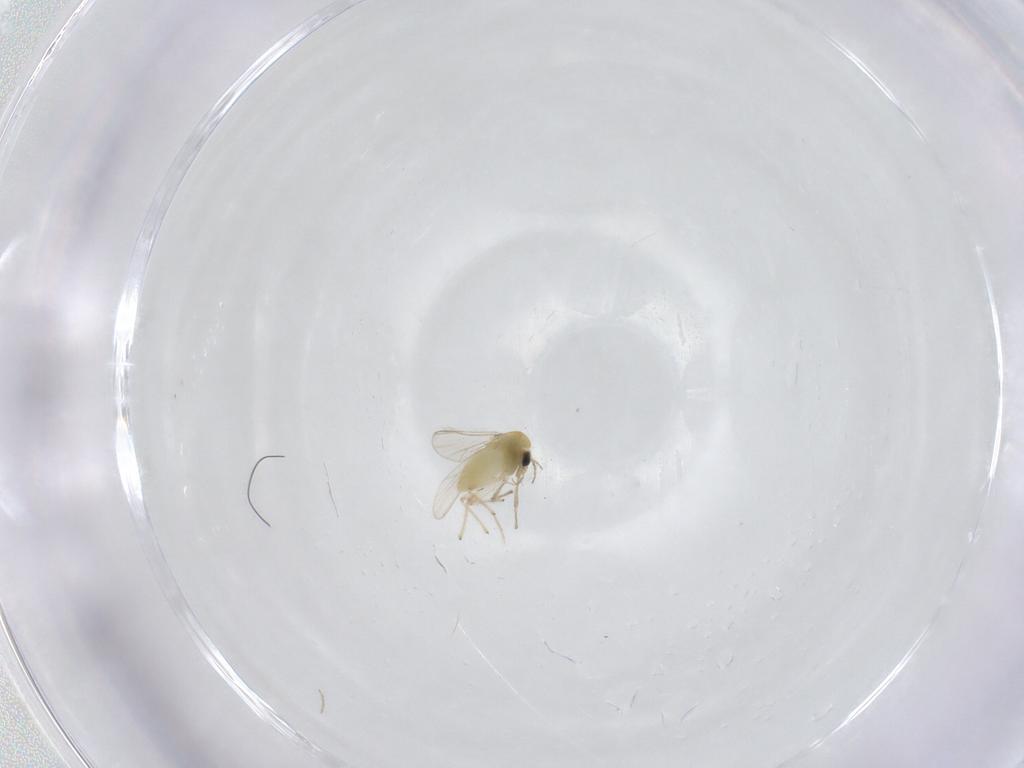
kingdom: Animalia
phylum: Arthropoda
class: Insecta
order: Diptera
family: Chironomidae
